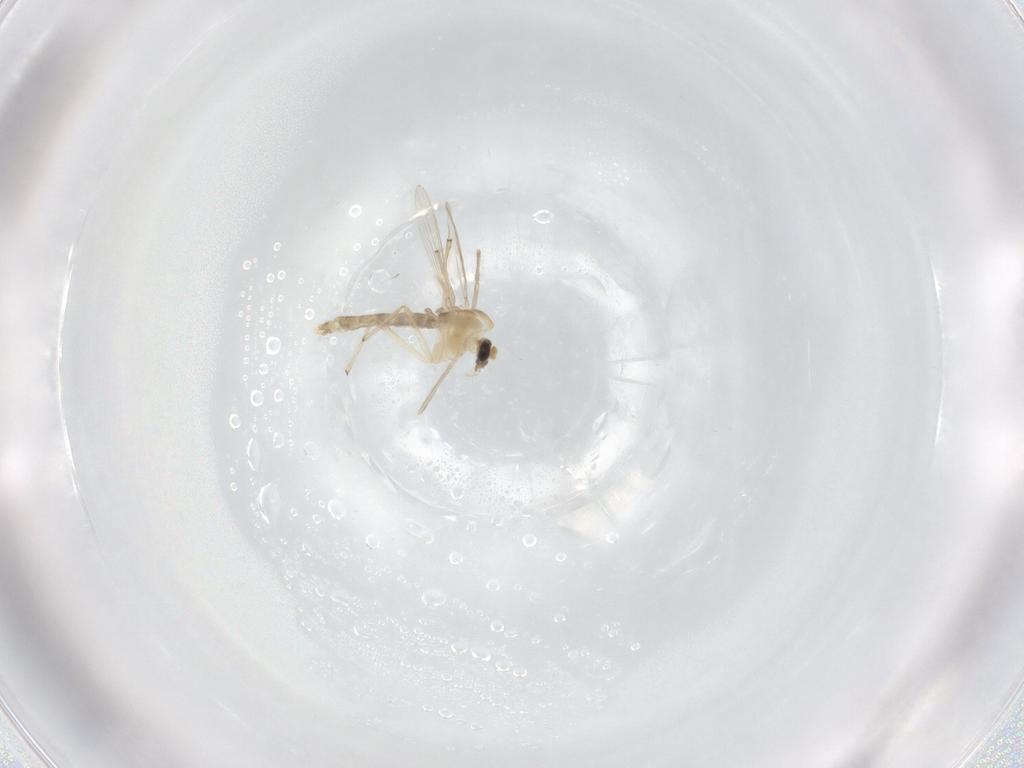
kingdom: Animalia
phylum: Arthropoda
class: Insecta
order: Diptera
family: Chironomidae
